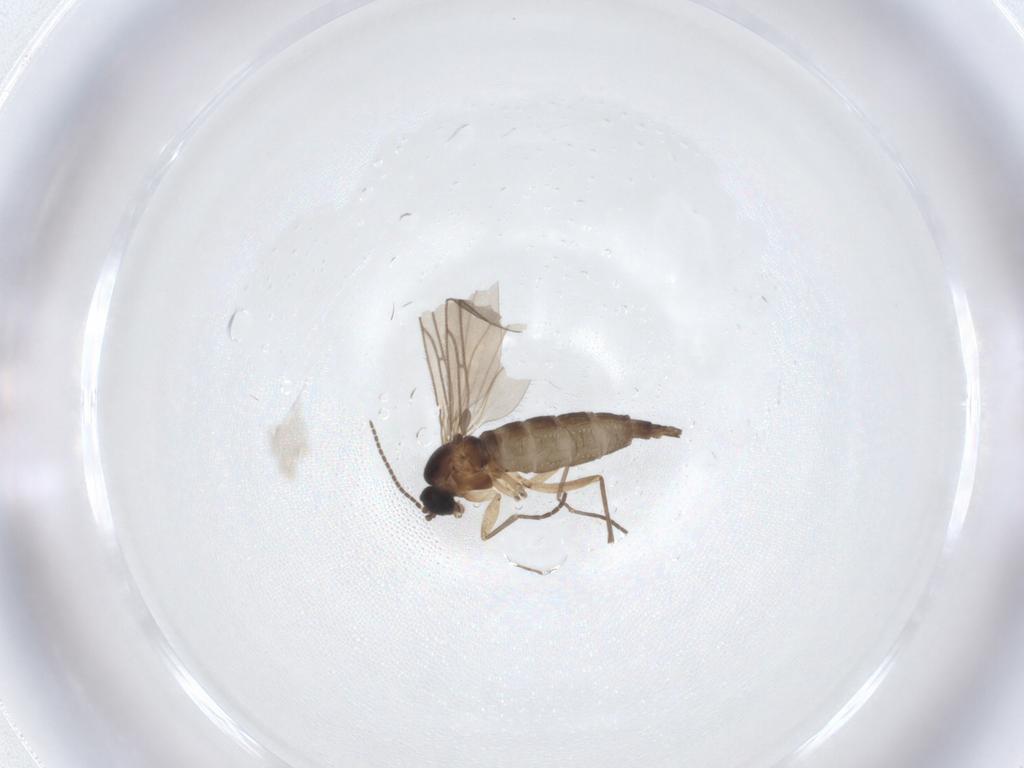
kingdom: Animalia
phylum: Arthropoda
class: Insecta
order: Diptera
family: Sciaridae
